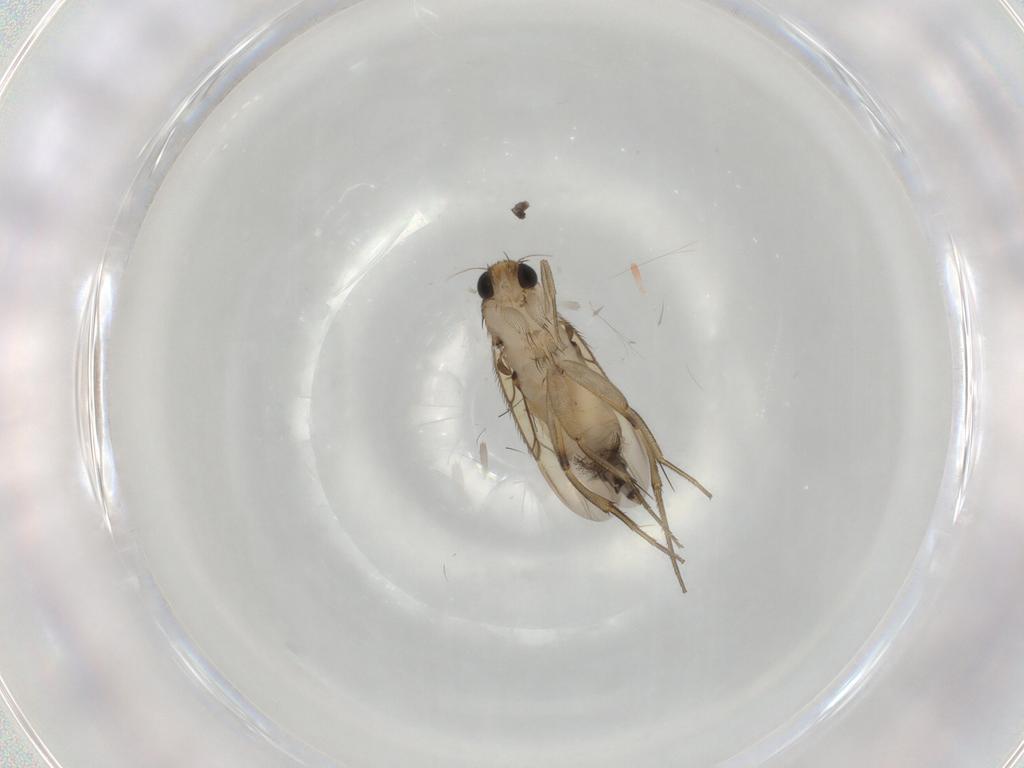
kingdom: Animalia
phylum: Arthropoda
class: Insecta
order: Diptera
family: Phoridae
